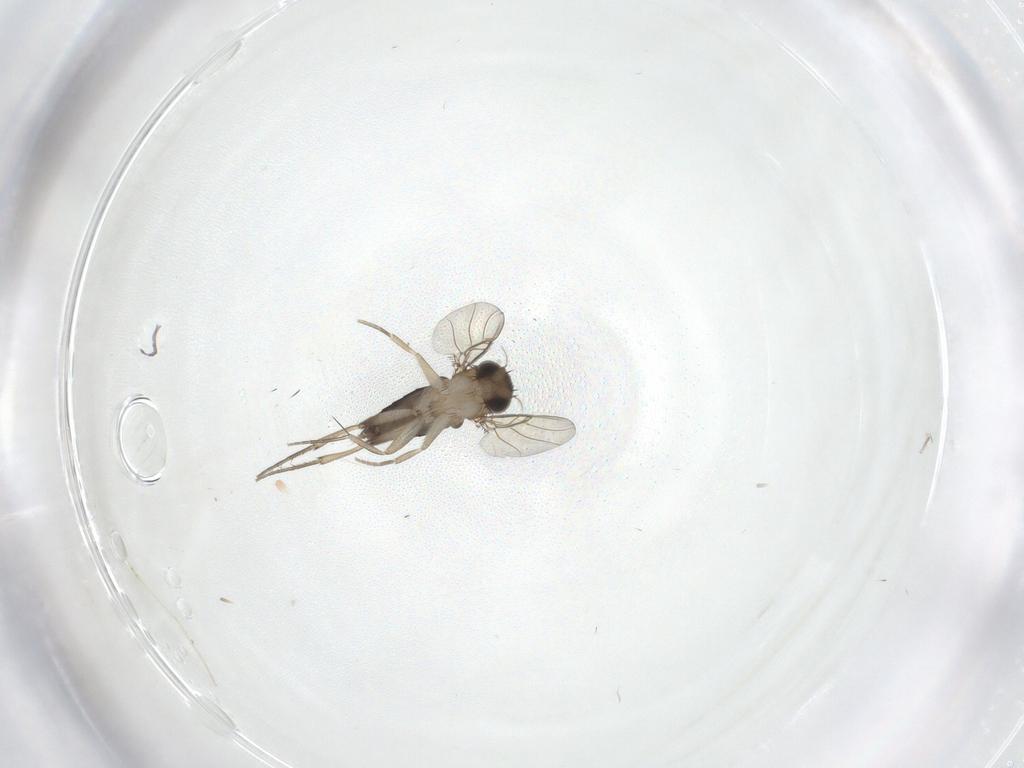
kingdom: Animalia
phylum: Arthropoda
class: Insecta
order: Diptera
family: Phoridae
